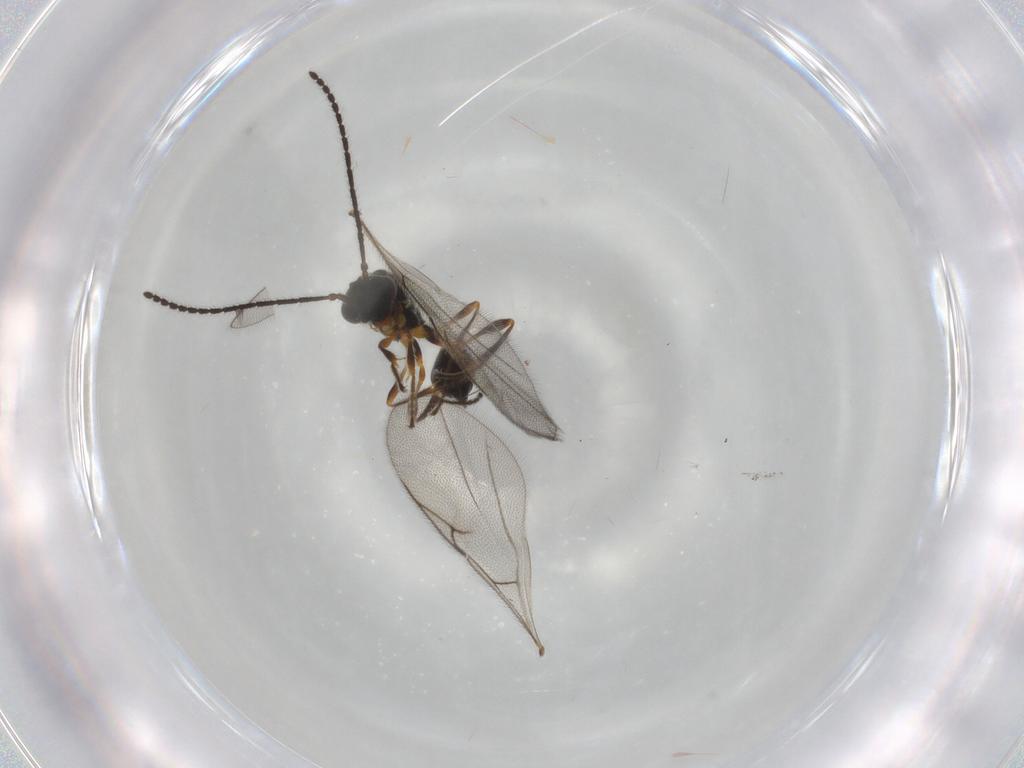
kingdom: Animalia
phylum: Arthropoda
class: Insecta
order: Hymenoptera
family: Diapriidae
